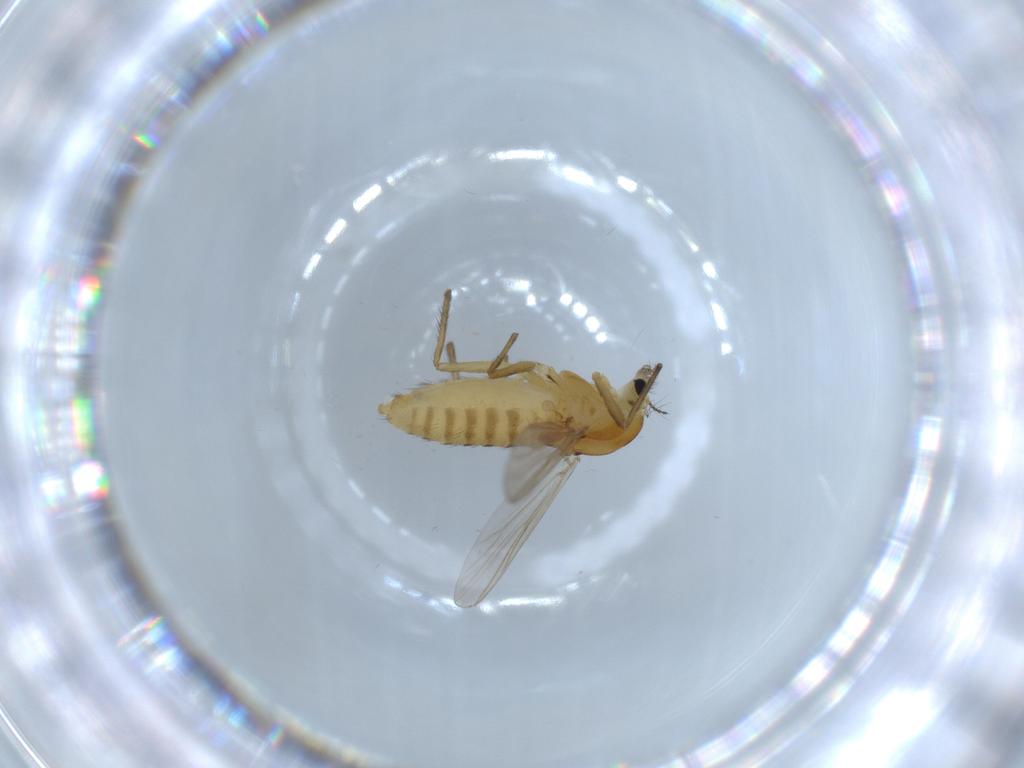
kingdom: Animalia
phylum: Arthropoda
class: Insecta
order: Diptera
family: Chironomidae
